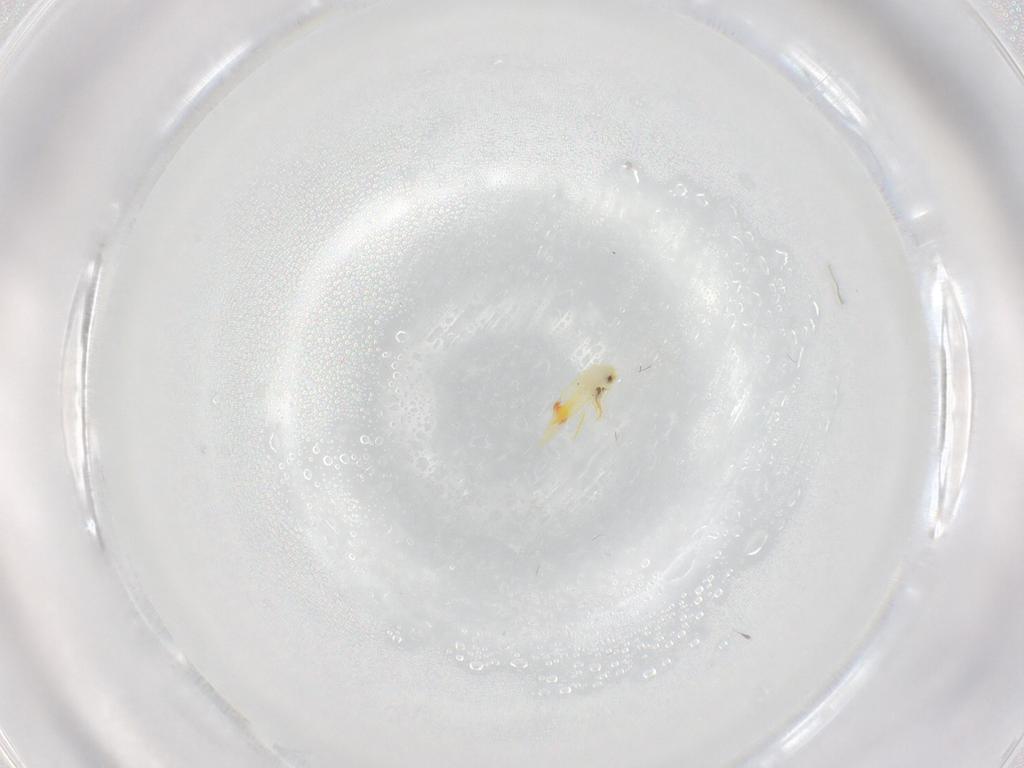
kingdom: Animalia
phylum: Arthropoda
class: Insecta
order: Hemiptera
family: Aleyrodidae
